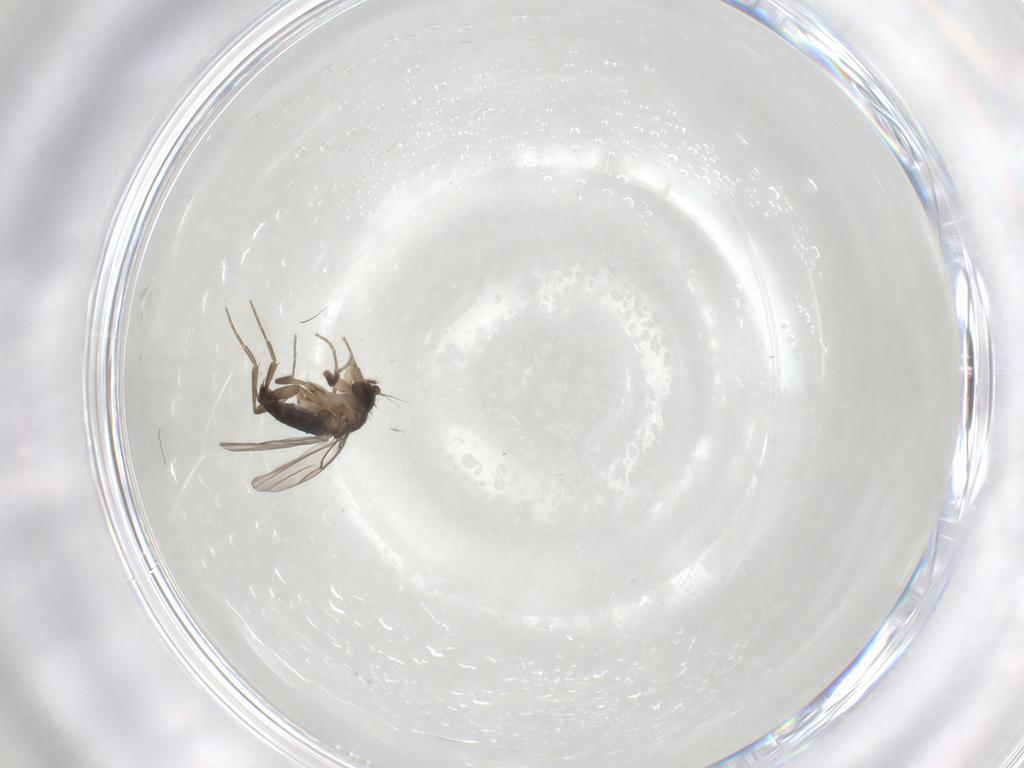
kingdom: Animalia
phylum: Arthropoda
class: Insecta
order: Diptera
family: Limoniidae
